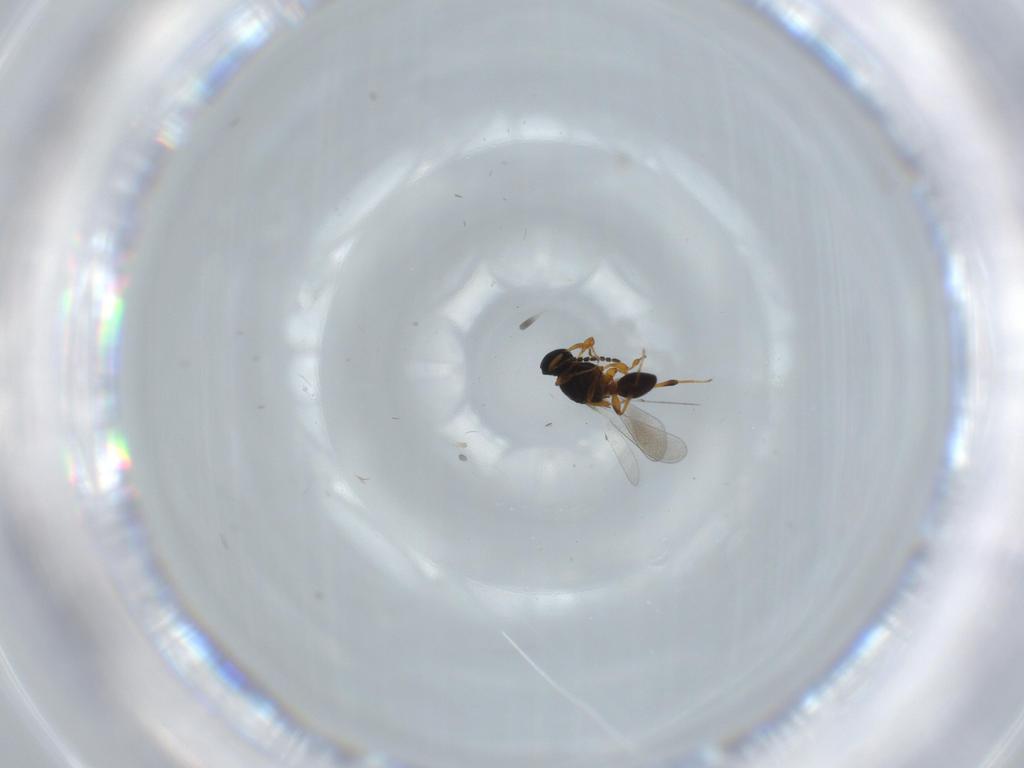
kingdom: Animalia
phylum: Arthropoda
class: Insecta
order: Hymenoptera
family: Platygastridae
